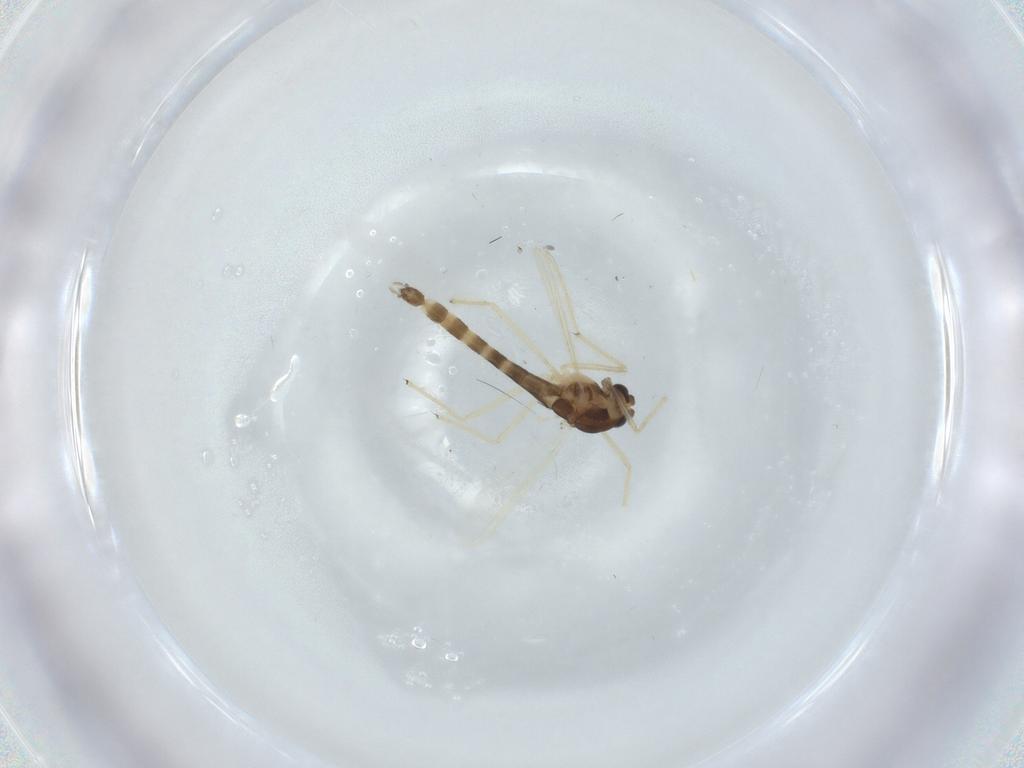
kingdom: Animalia
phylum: Arthropoda
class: Insecta
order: Diptera
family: Chironomidae
